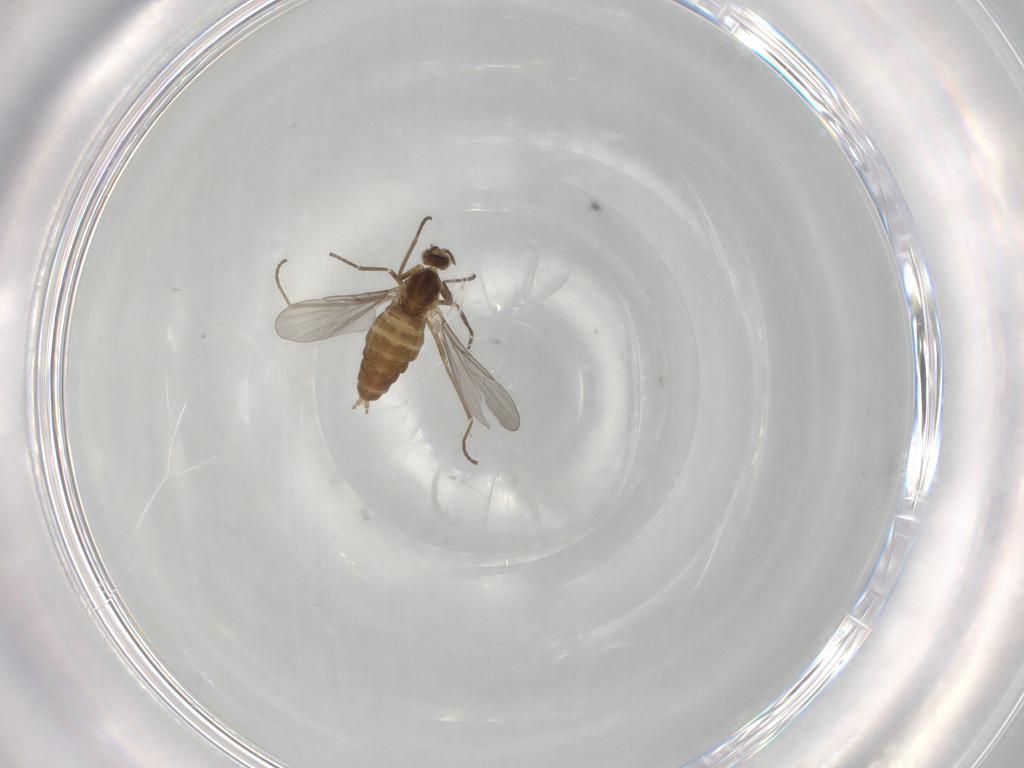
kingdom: Animalia
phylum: Arthropoda
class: Insecta
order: Diptera
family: Cecidomyiidae
